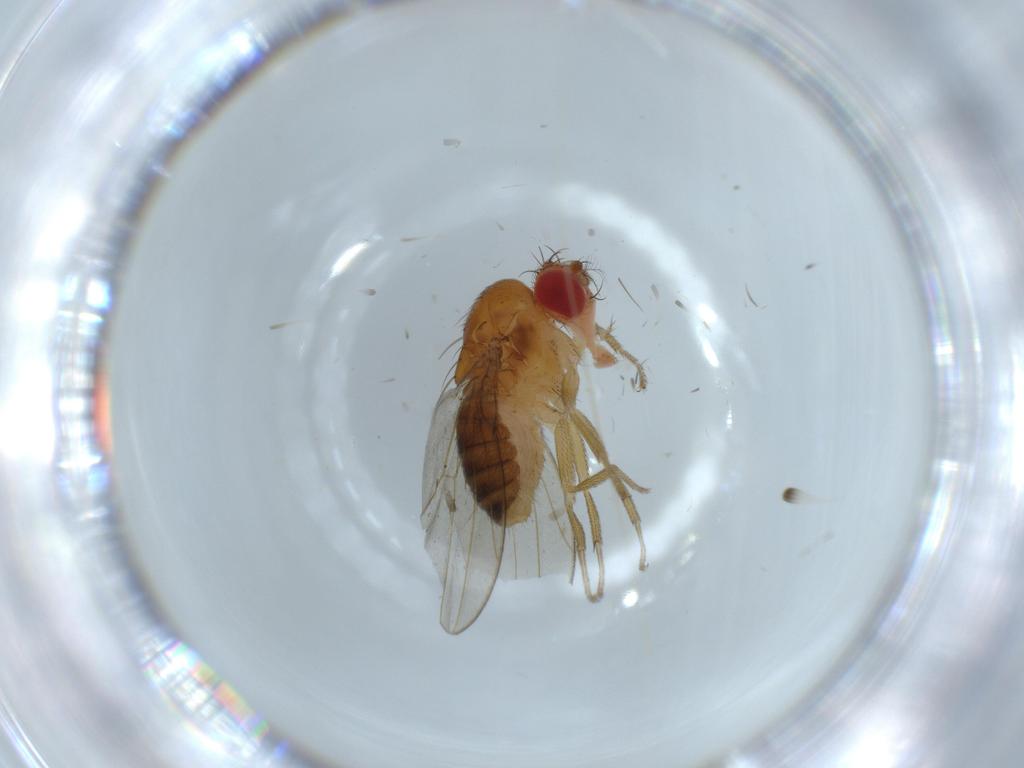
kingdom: Animalia
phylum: Arthropoda
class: Insecta
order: Diptera
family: Drosophilidae
